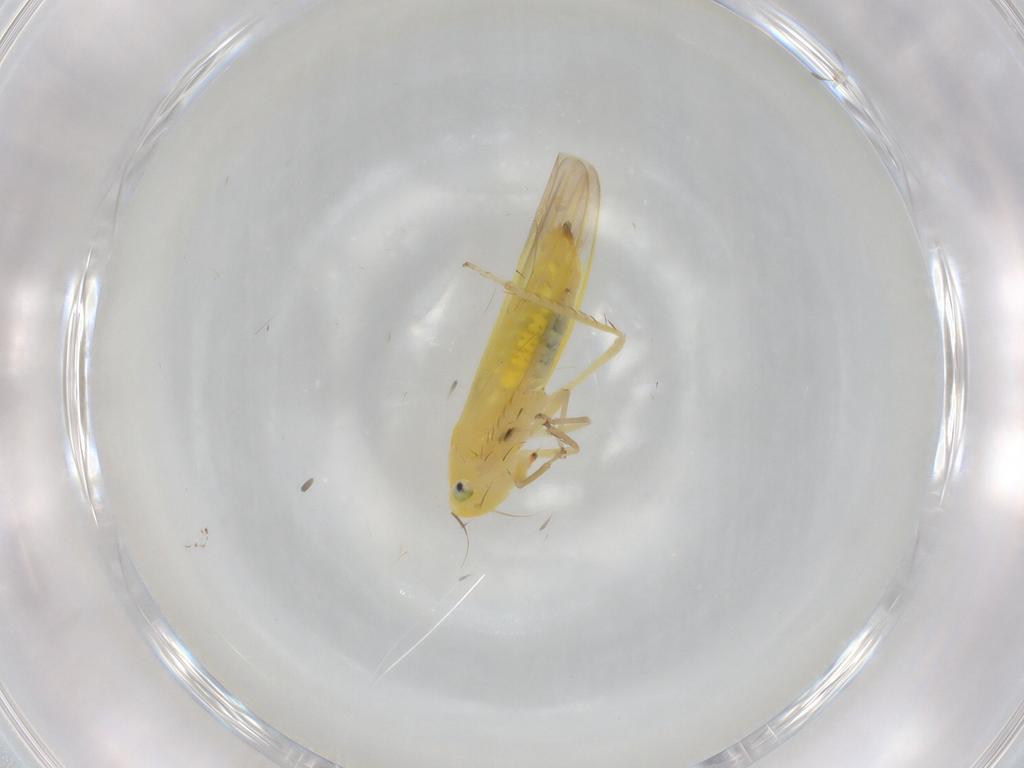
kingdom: Animalia
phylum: Arthropoda
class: Insecta
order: Hemiptera
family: Cicadellidae
